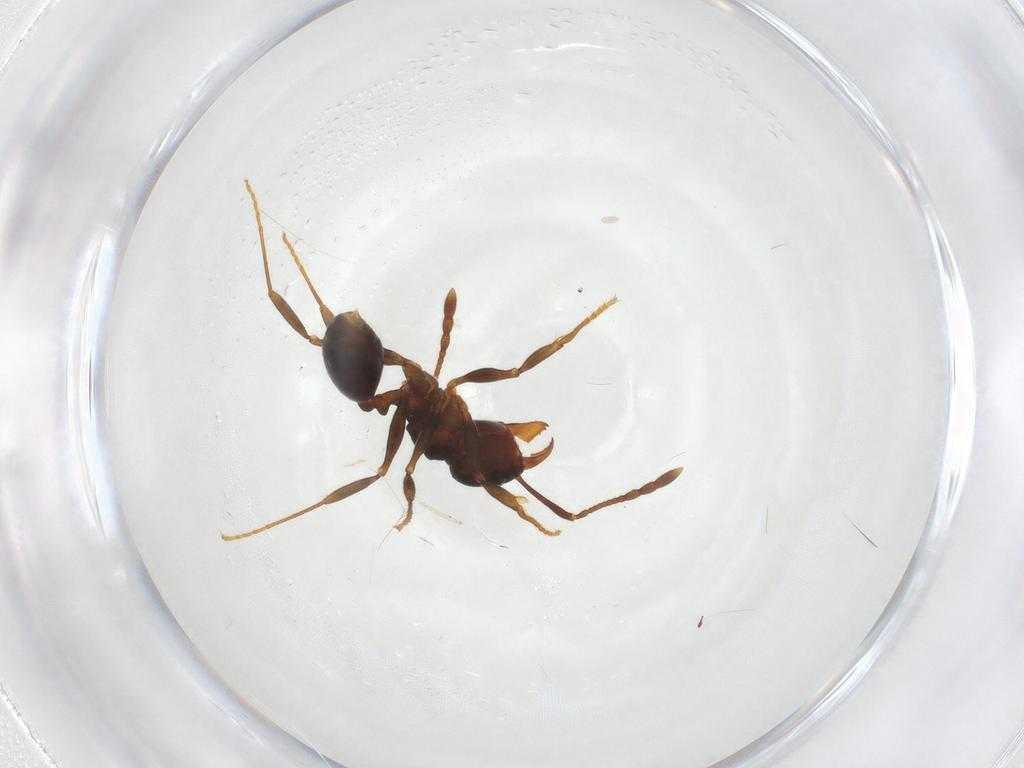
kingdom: Animalia
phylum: Arthropoda
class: Insecta
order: Hymenoptera
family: Formicidae
